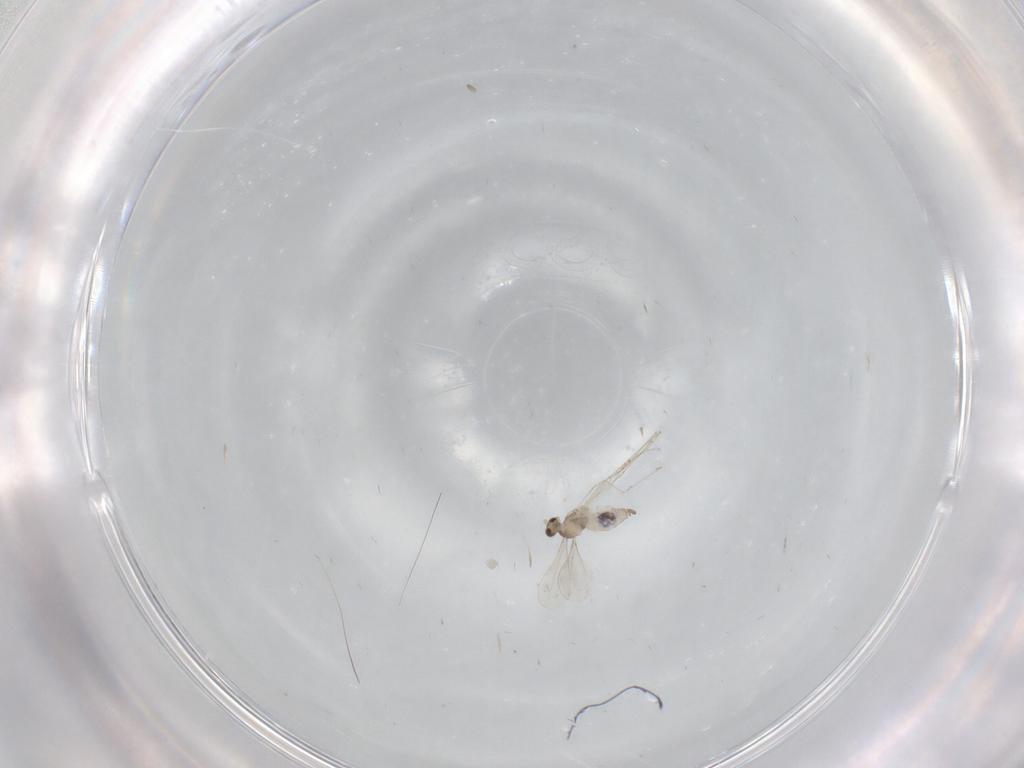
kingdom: Animalia
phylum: Arthropoda
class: Insecta
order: Diptera
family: Cecidomyiidae
